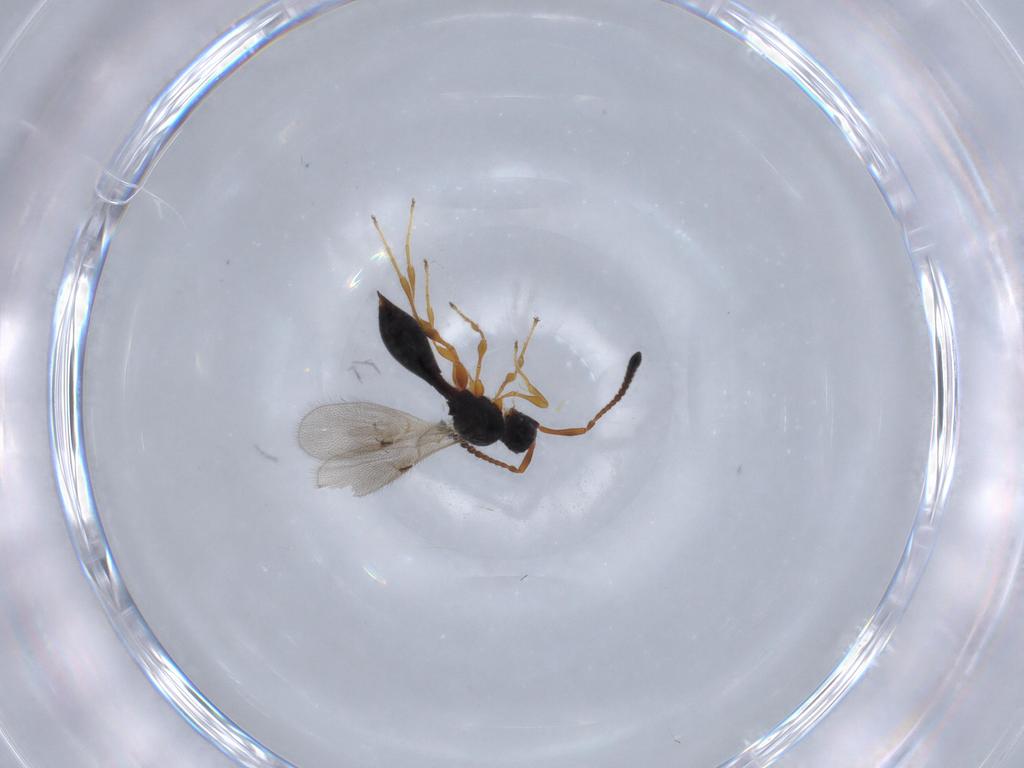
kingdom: Animalia
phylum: Arthropoda
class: Insecta
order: Hymenoptera
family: Diapriidae
